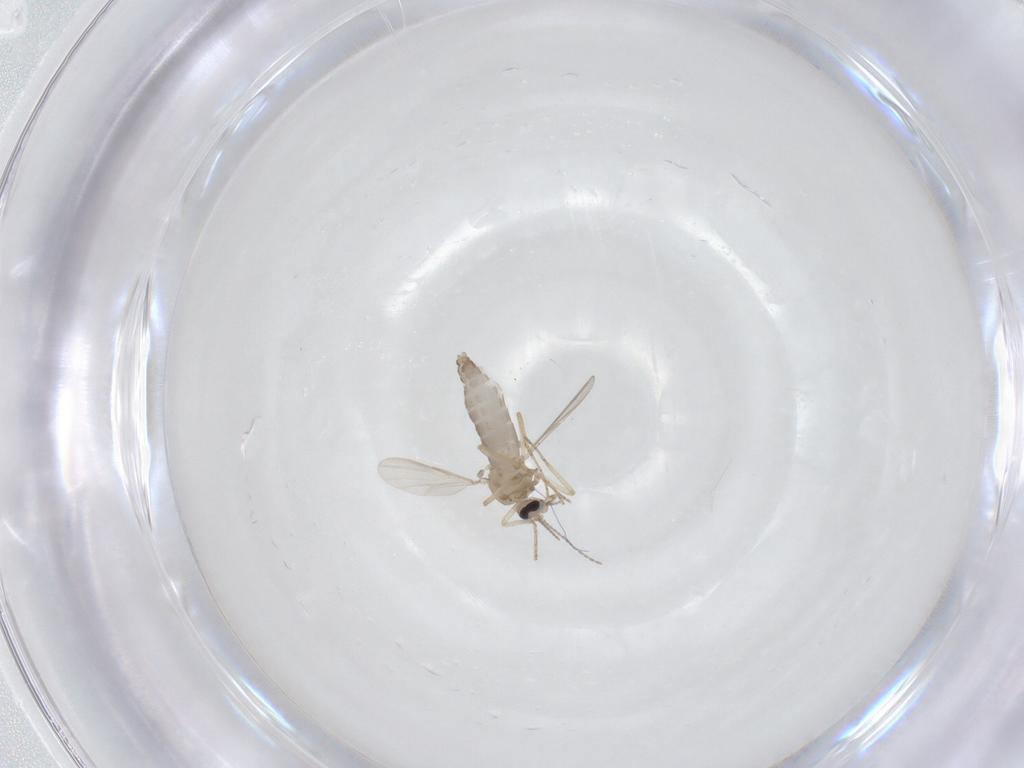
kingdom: Animalia
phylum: Arthropoda
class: Insecta
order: Diptera
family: Ceratopogonidae
